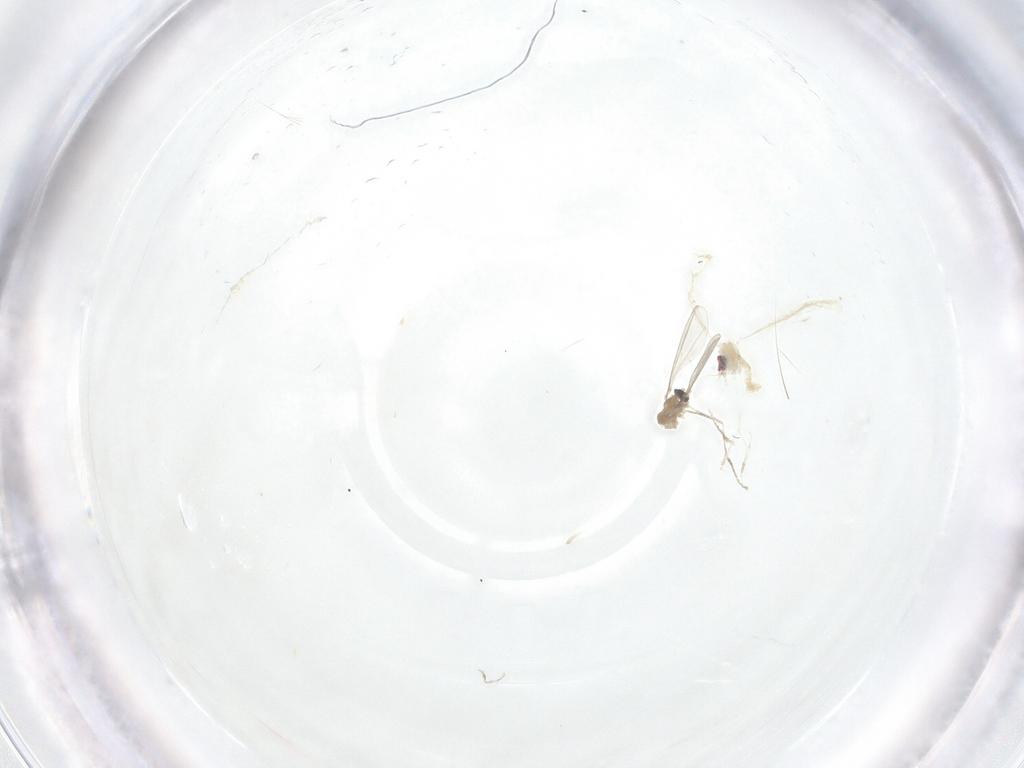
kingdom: Animalia
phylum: Arthropoda
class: Insecta
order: Diptera
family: Cecidomyiidae
